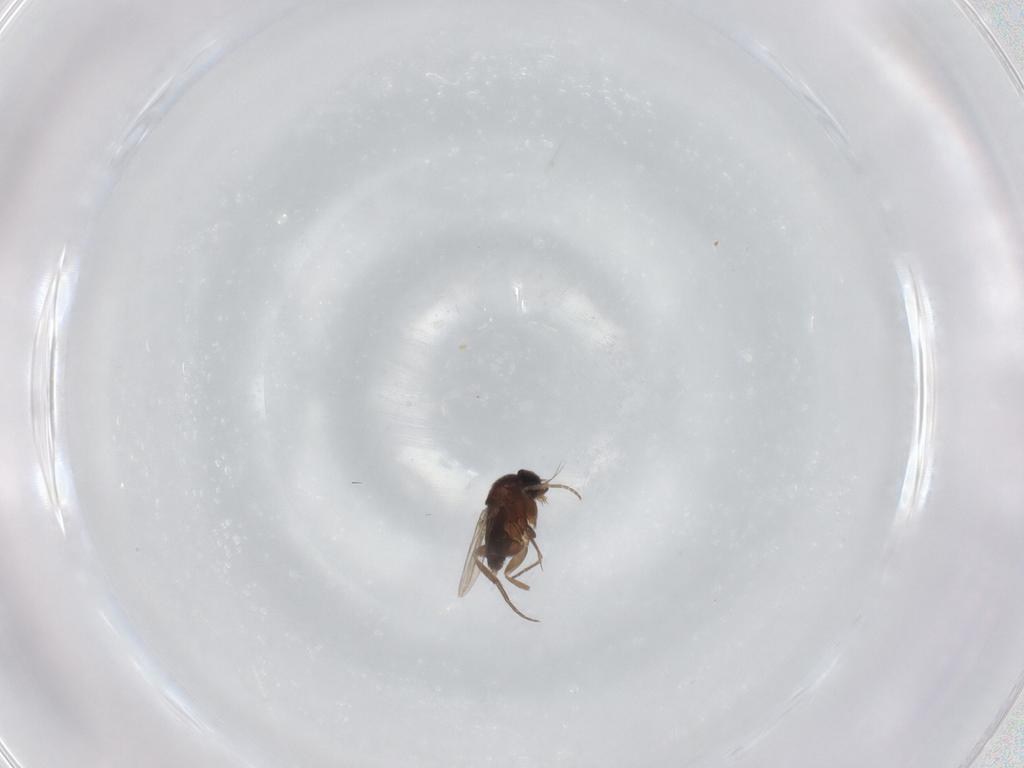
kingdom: Animalia
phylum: Arthropoda
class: Insecta
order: Diptera
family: Phoridae
